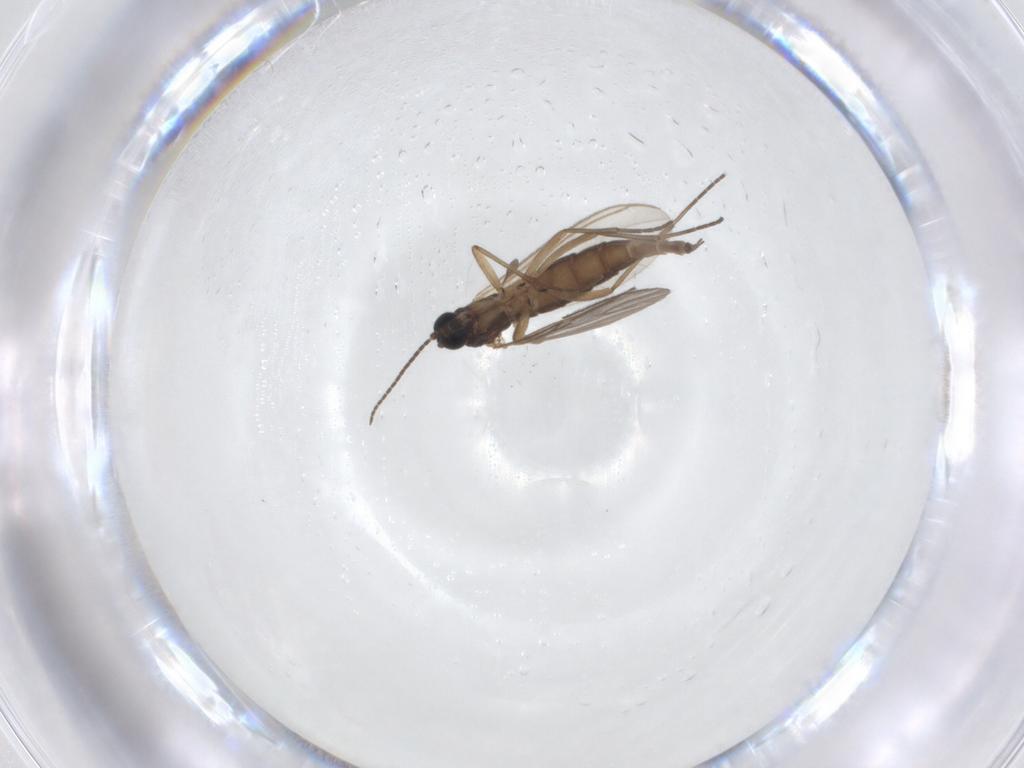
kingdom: Animalia
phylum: Arthropoda
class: Insecta
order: Diptera
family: Sciaridae
